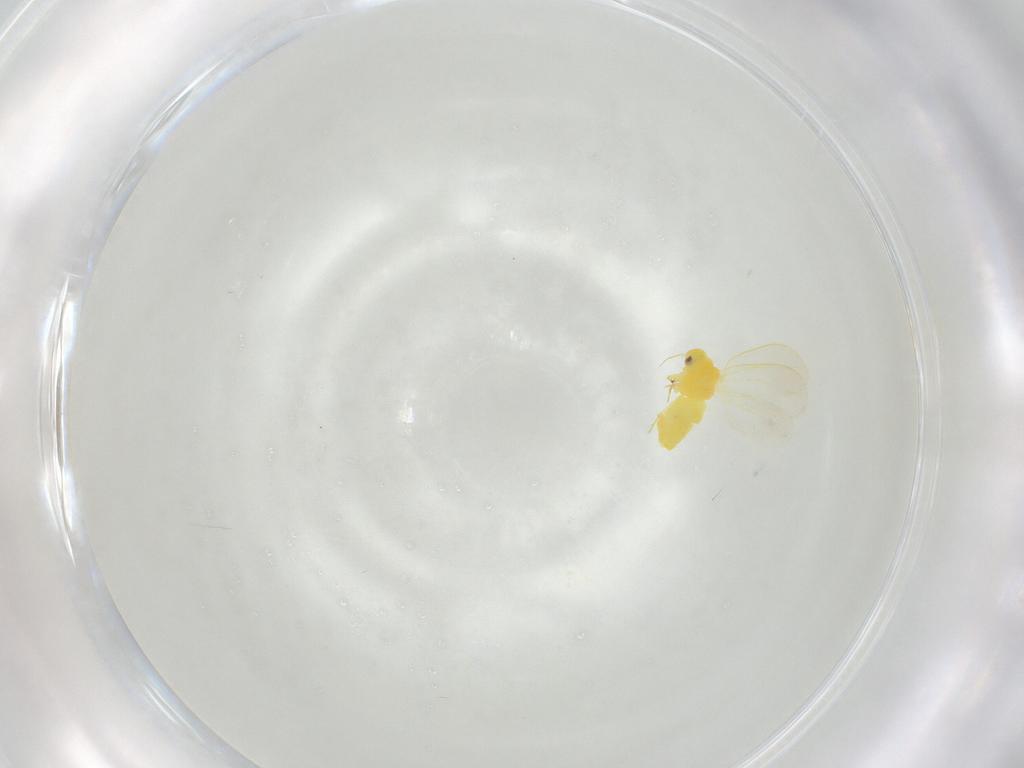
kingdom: Animalia
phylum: Arthropoda
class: Insecta
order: Hemiptera
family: Aleyrodidae
